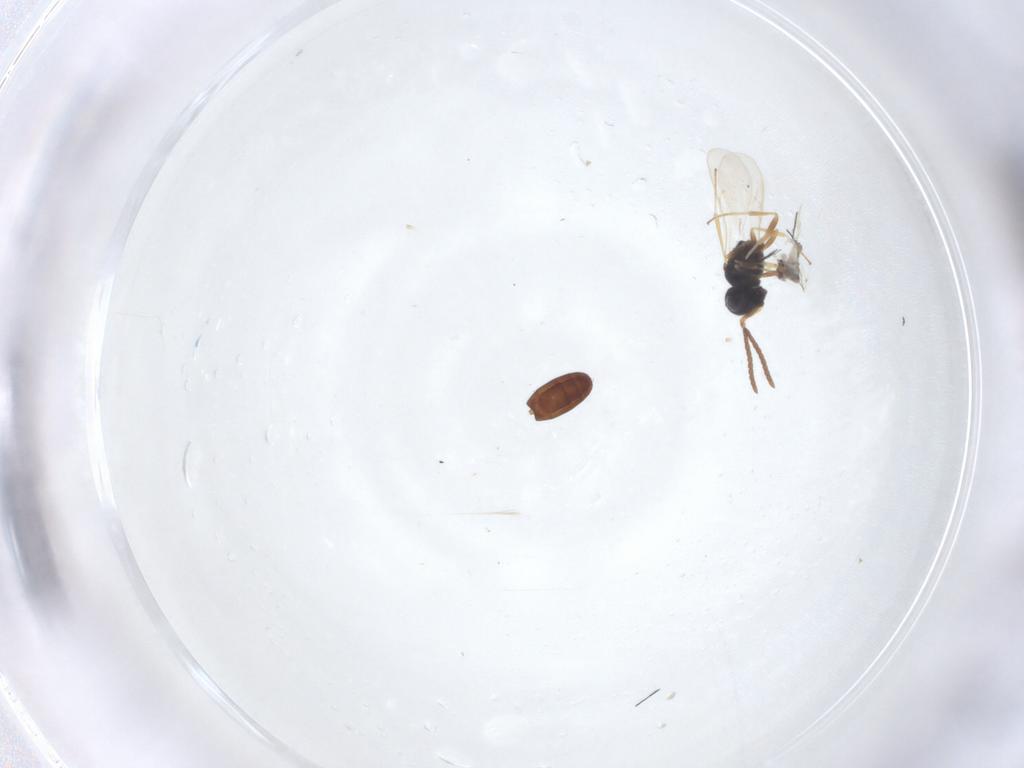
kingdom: Animalia
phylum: Arthropoda
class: Insecta
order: Hymenoptera
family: Scelionidae
